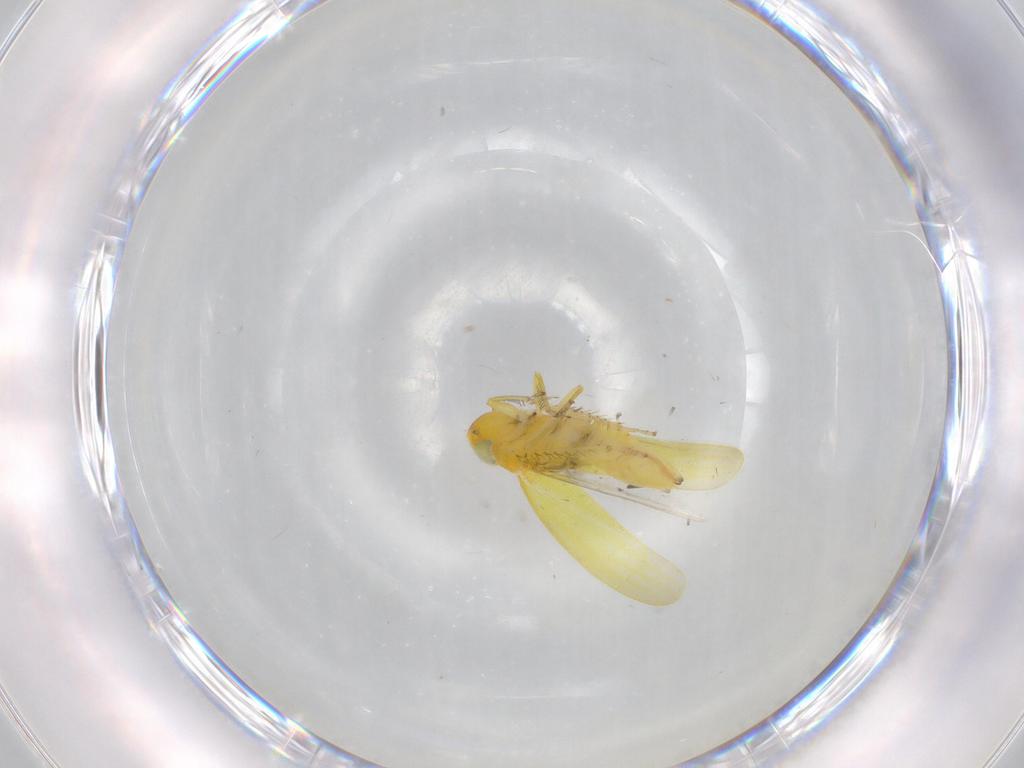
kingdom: Animalia
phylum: Arthropoda
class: Insecta
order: Hemiptera
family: Cicadellidae
